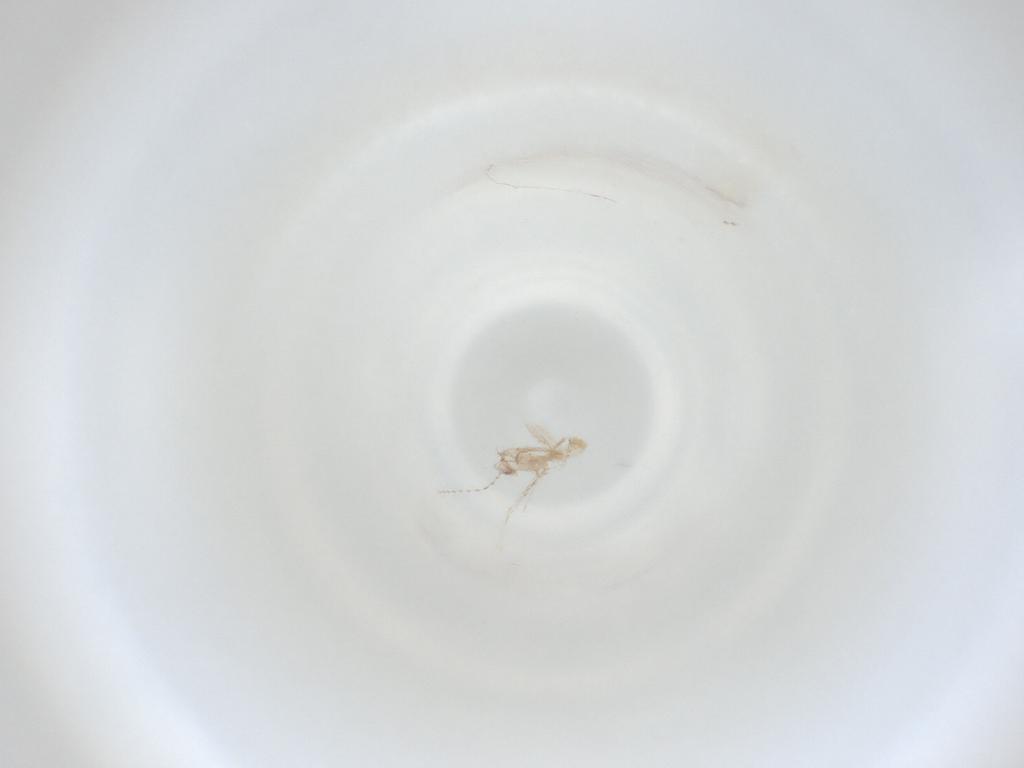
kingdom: Animalia
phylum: Arthropoda
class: Insecta
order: Diptera
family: Cecidomyiidae
